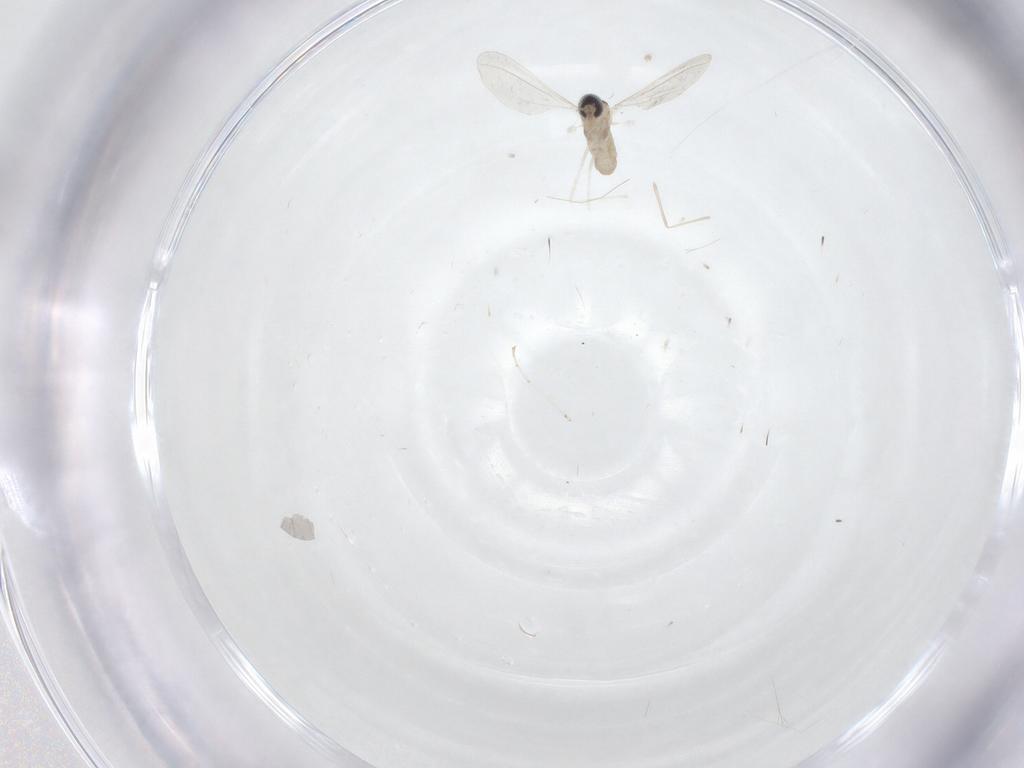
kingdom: Animalia
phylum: Arthropoda
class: Insecta
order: Diptera
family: Cecidomyiidae
